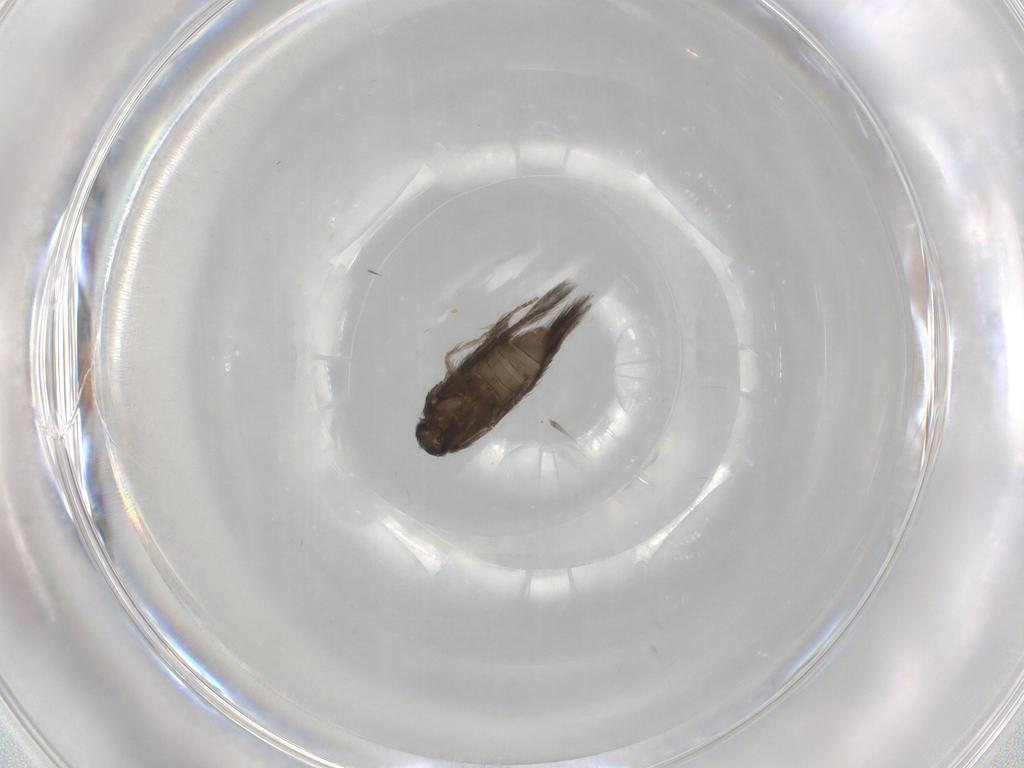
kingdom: Animalia
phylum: Arthropoda
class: Insecta
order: Trichoptera
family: Hydroptilidae
